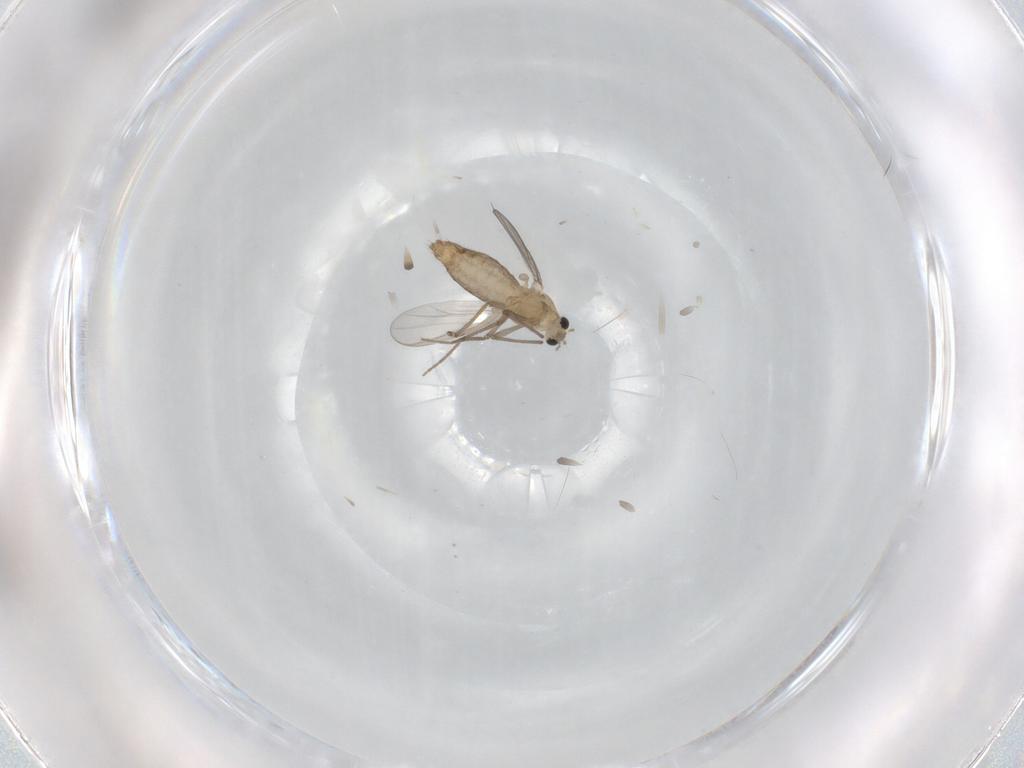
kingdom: Animalia
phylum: Arthropoda
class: Insecta
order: Diptera
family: Chironomidae
